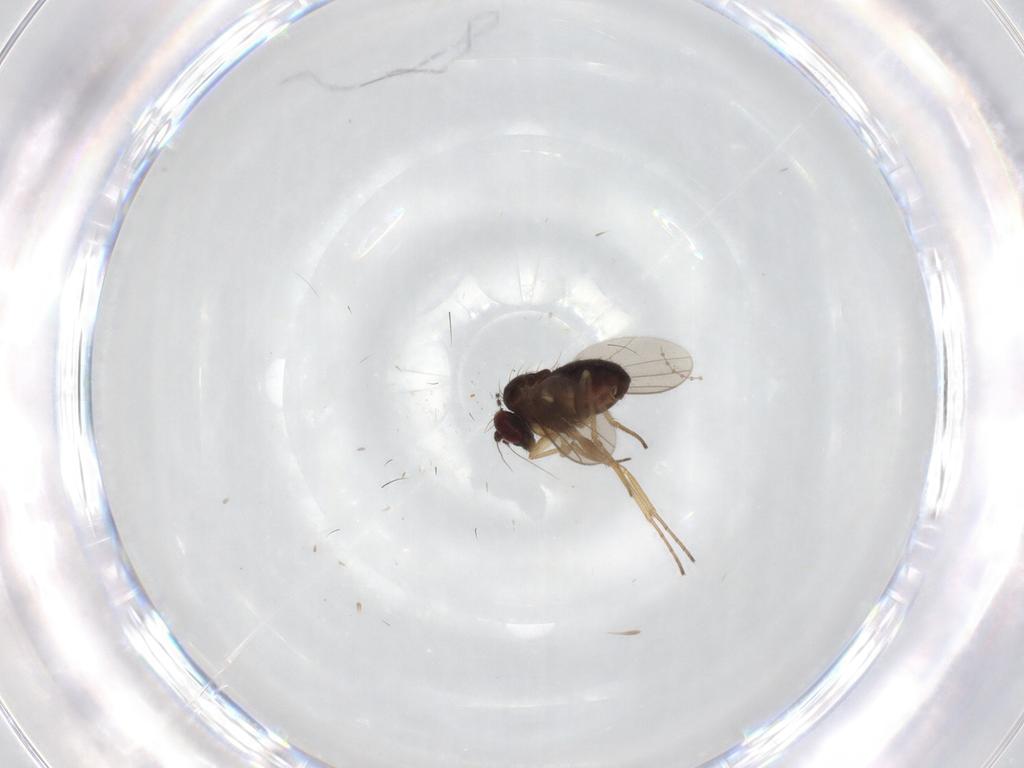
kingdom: Animalia
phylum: Arthropoda
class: Insecta
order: Diptera
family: Dolichopodidae
